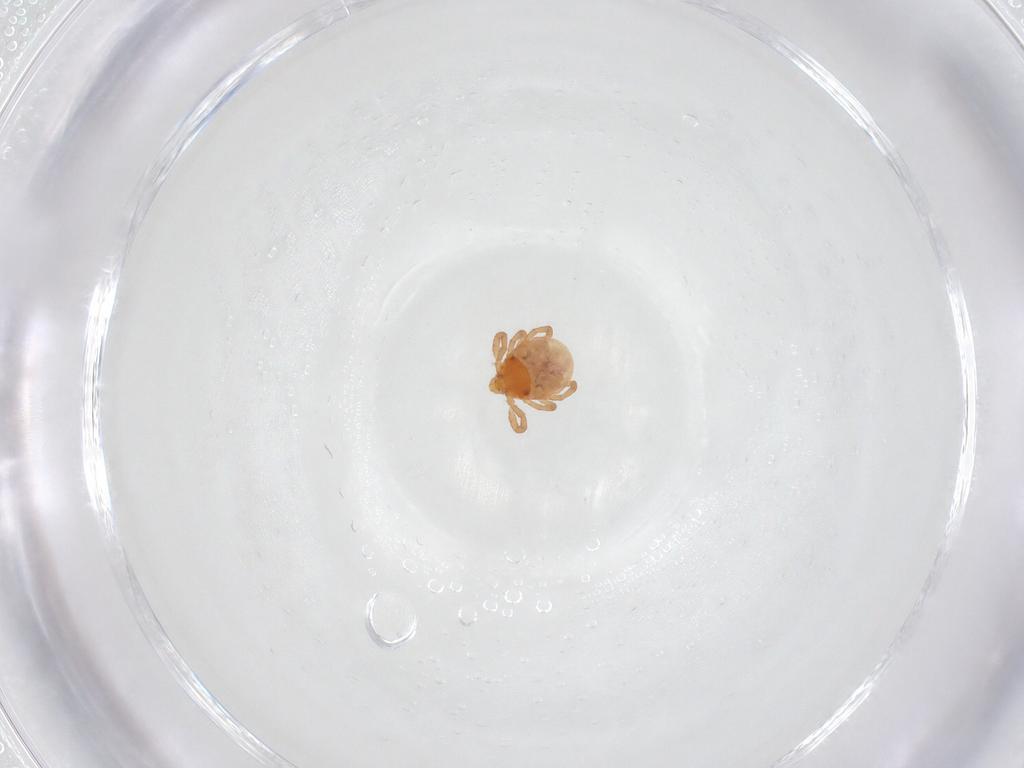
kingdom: Animalia
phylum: Arthropoda
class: Arachnida
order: Ixodida
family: Ixodidae
